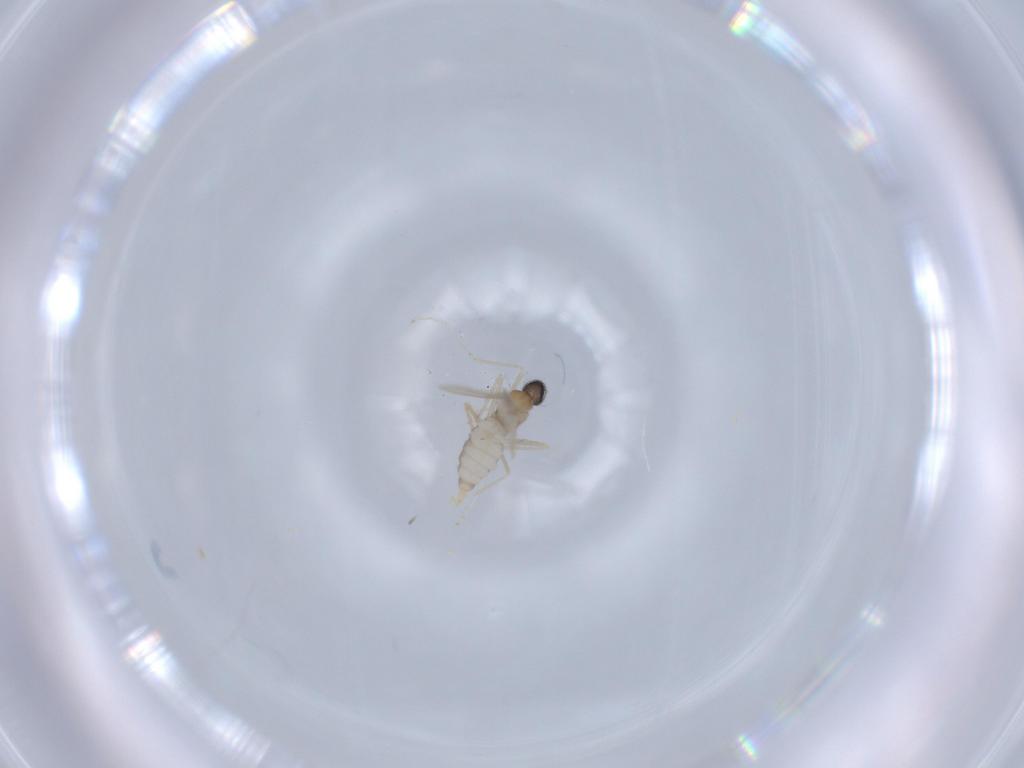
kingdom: Animalia
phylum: Arthropoda
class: Insecta
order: Diptera
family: Cecidomyiidae
